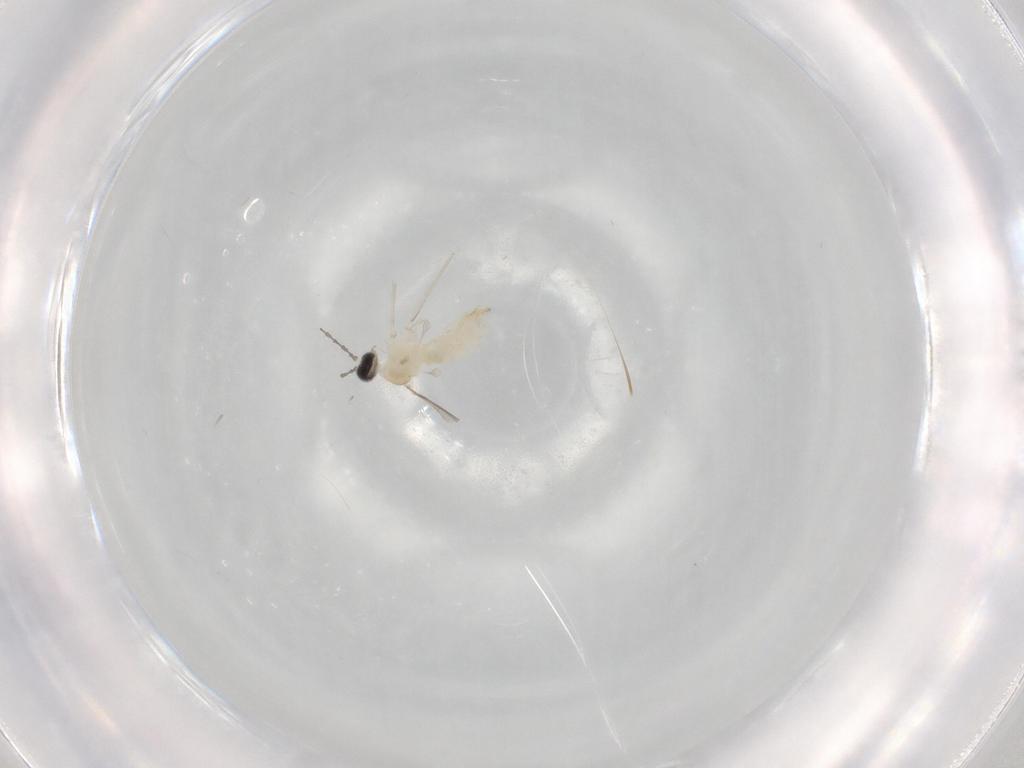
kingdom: Animalia
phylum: Arthropoda
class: Insecta
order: Diptera
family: Cecidomyiidae
